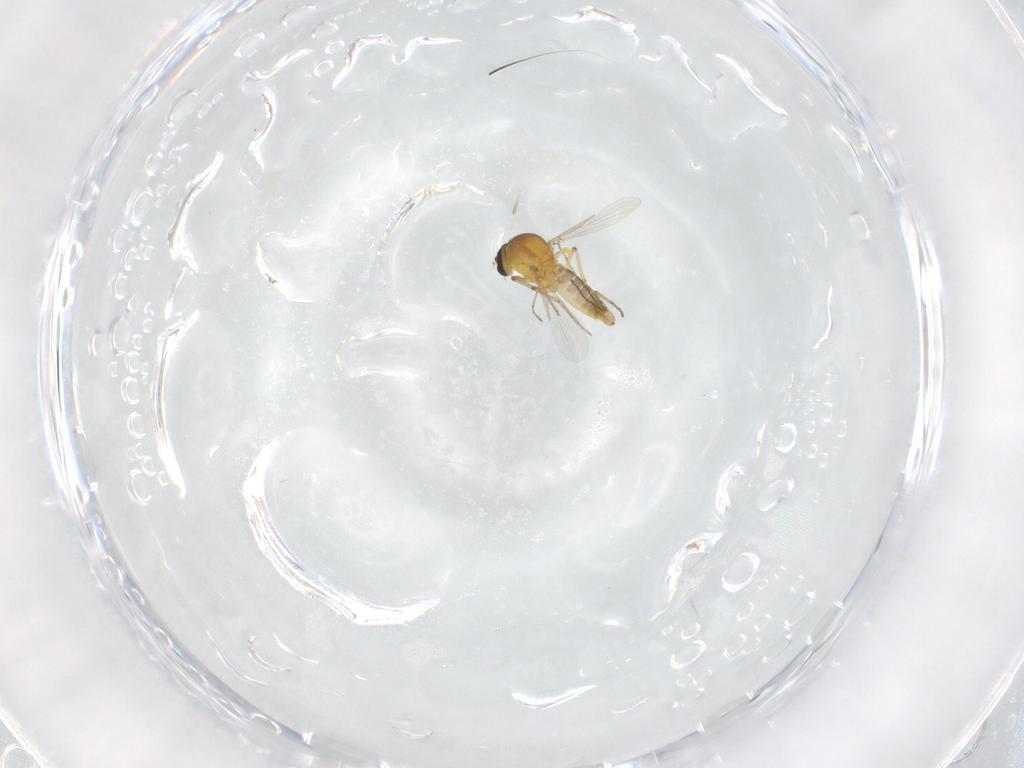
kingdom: Animalia
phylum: Arthropoda
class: Insecta
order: Diptera
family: Ceratopogonidae
